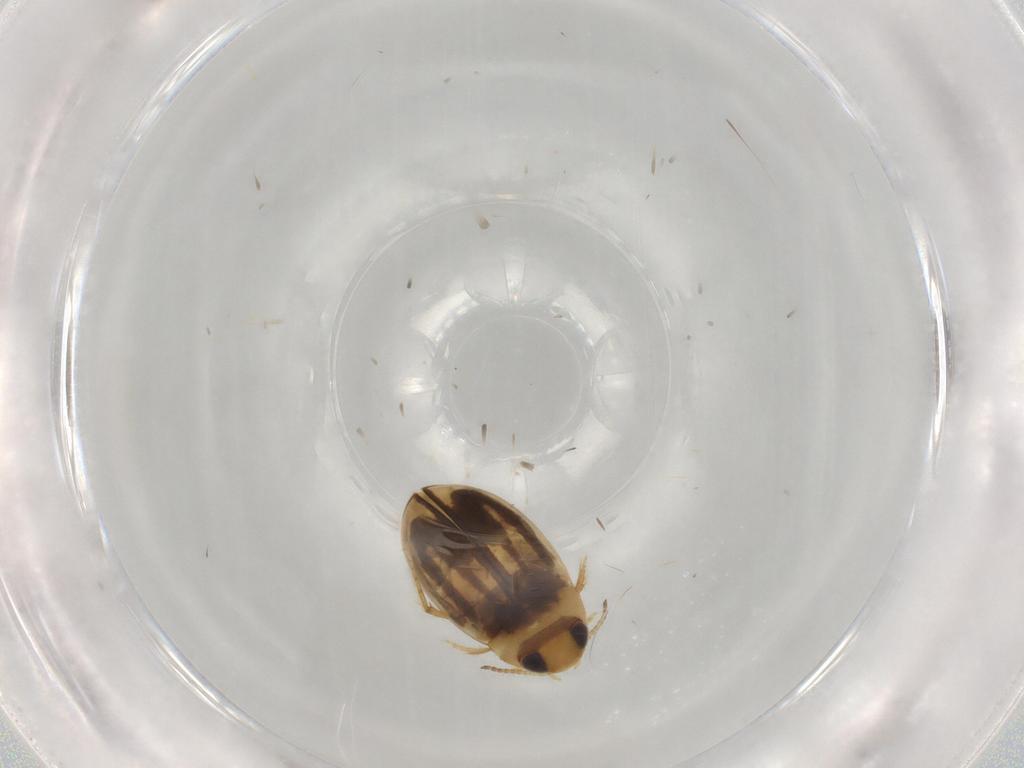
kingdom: Animalia
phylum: Arthropoda
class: Insecta
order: Coleoptera
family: Dytiscidae
